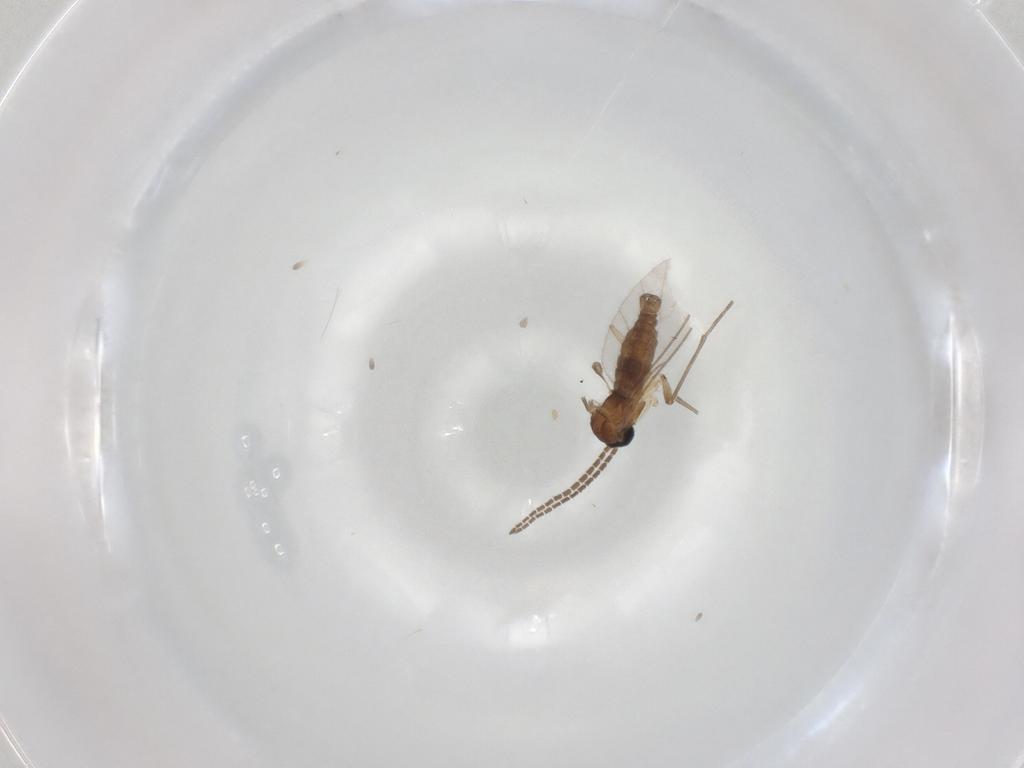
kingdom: Animalia
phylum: Arthropoda
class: Insecta
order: Diptera
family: Sciaridae
